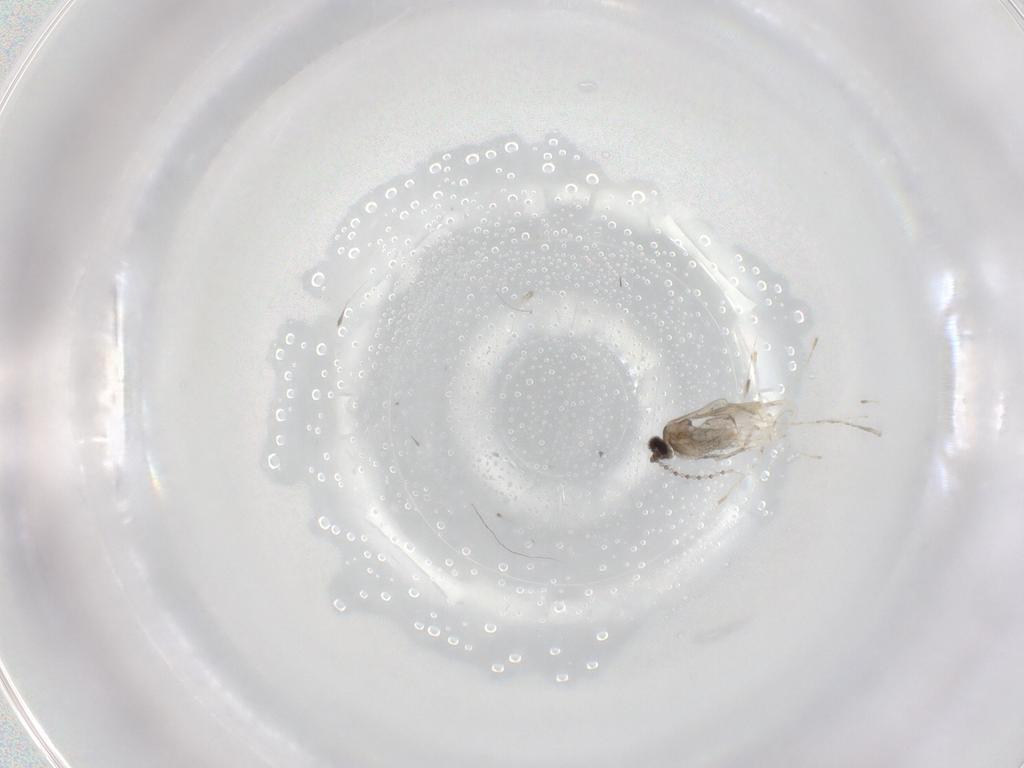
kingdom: Animalia
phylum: Arthropoda
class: Insecta
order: Diptera
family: Cecidomyiidae
